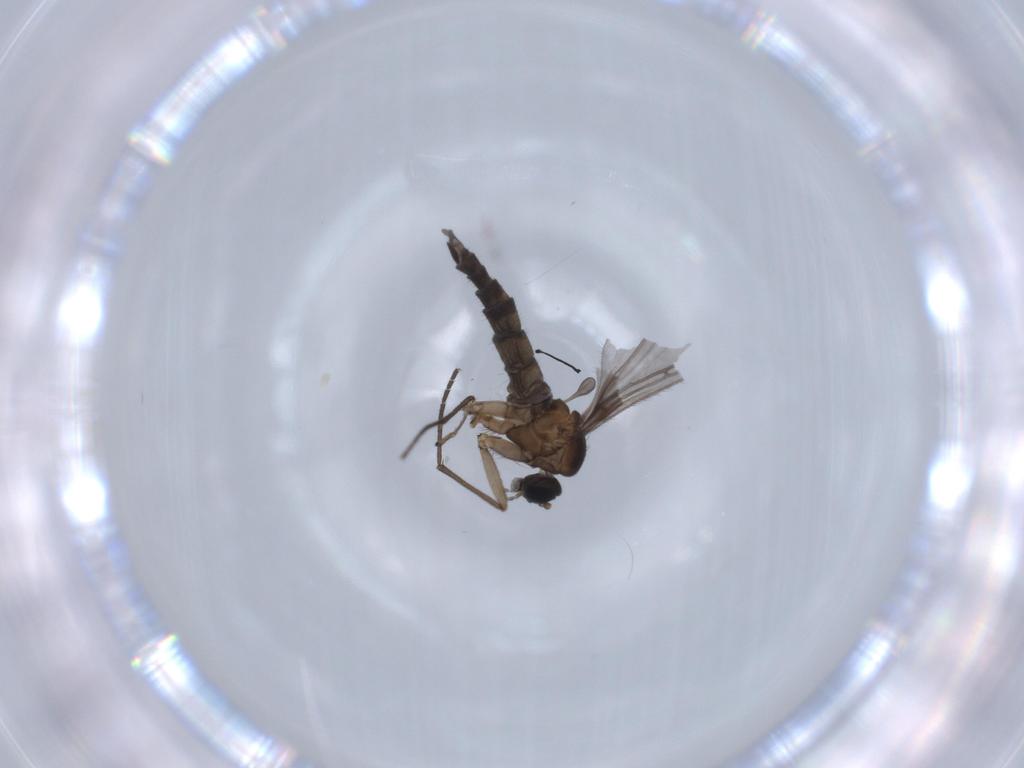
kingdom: Animalia
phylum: Arthropoda
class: Insecta
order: Diptera
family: Sciaridae
